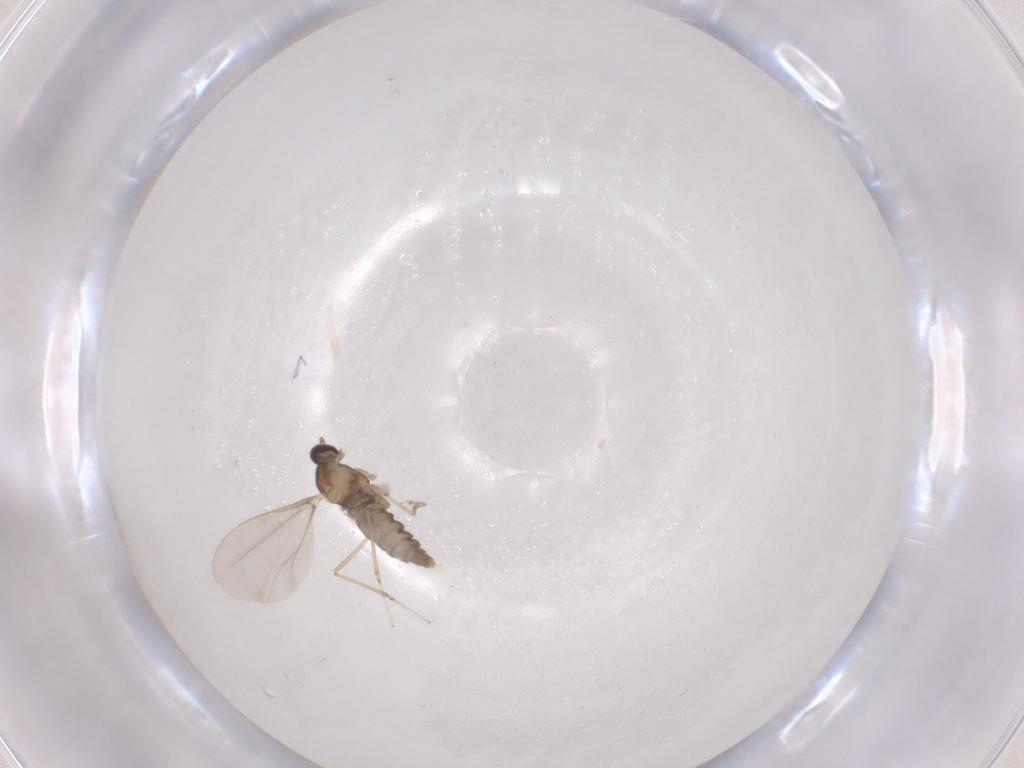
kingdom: Animalia
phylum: Arthropoda
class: Insecta
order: Diptera
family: Cecidomyiidae
